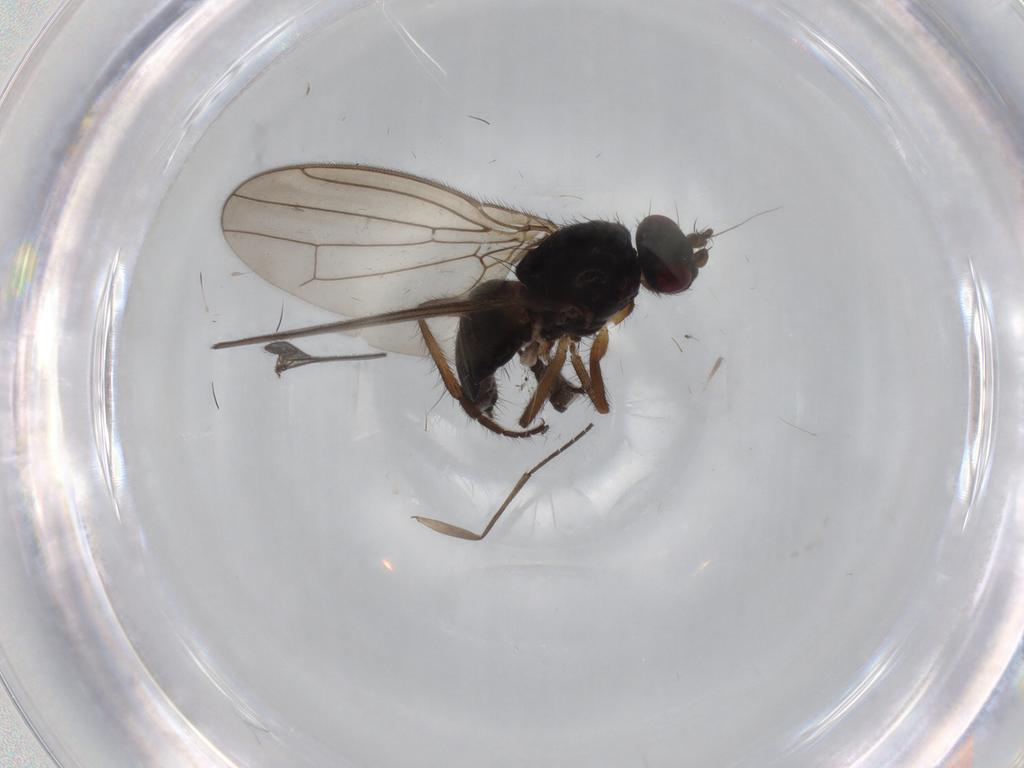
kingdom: Animalia
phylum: Arthropoda
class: Insecta
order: Diptera
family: Sphaeroceridae
